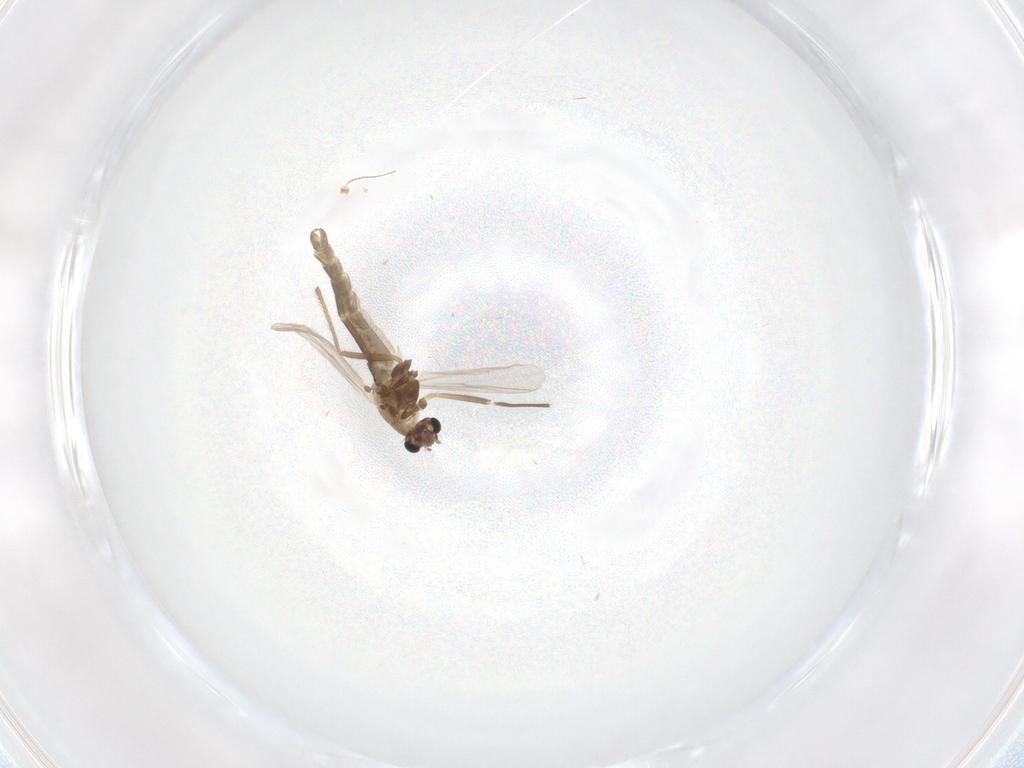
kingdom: Animalia
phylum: Arthropoda
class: Insecta
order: Diptera
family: Chironomidae
